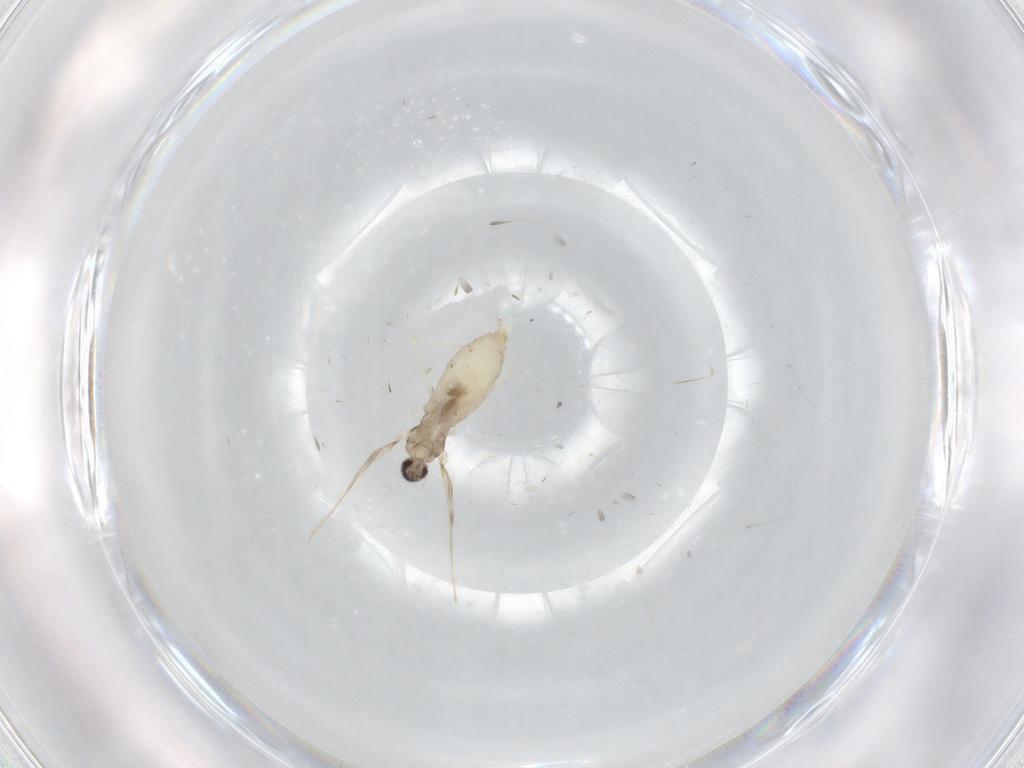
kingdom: Animalia
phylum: Arthropoda
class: Insecta
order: Diptera
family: Cecidomyiidae
